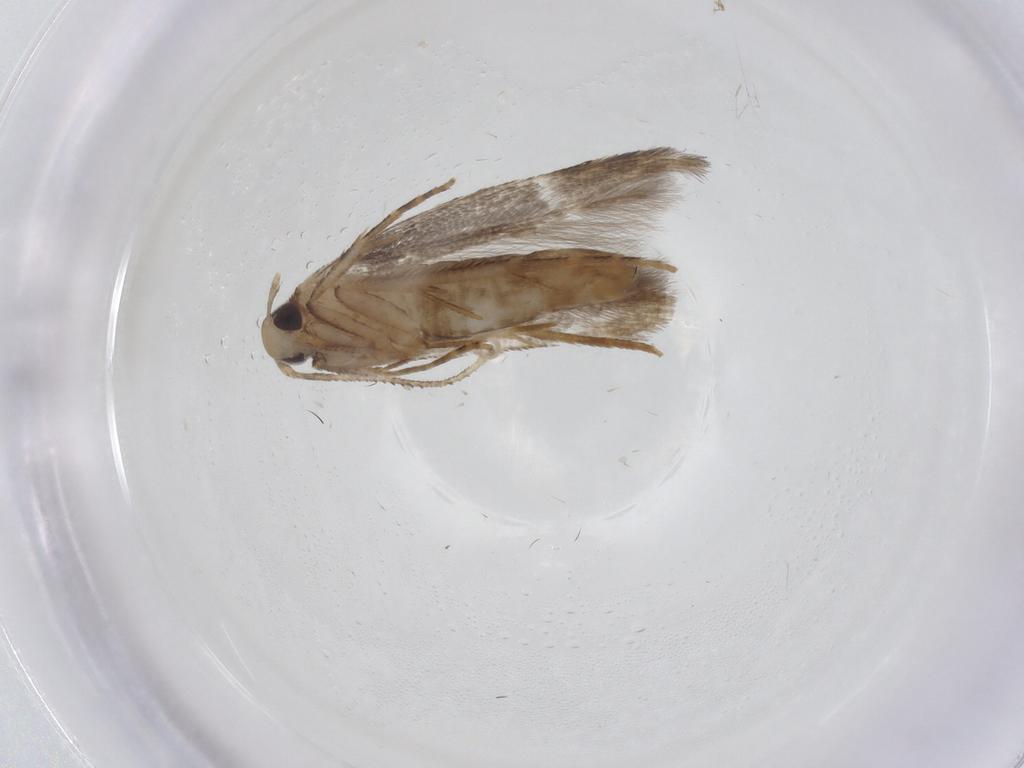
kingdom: Animalia
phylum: Arthropoda
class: Insecta
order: Lepidoptera
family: Cosmopterigidae
